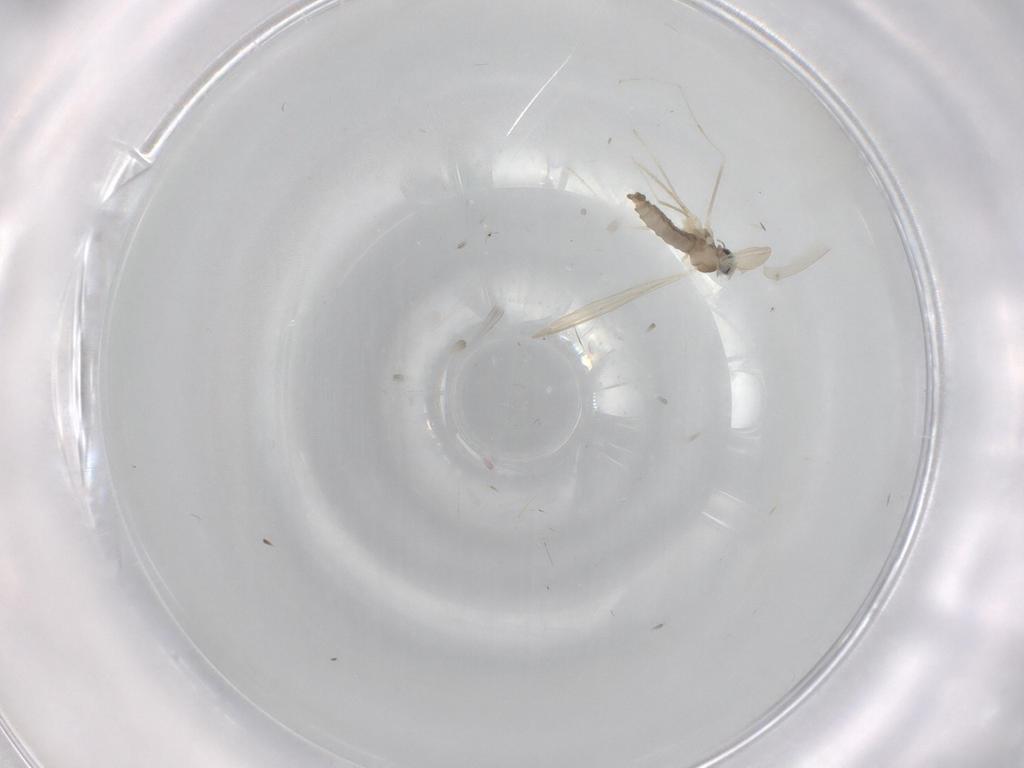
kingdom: Animalia
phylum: Arthropoda
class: Insecta
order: Diptera
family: Cecidomyiidae
